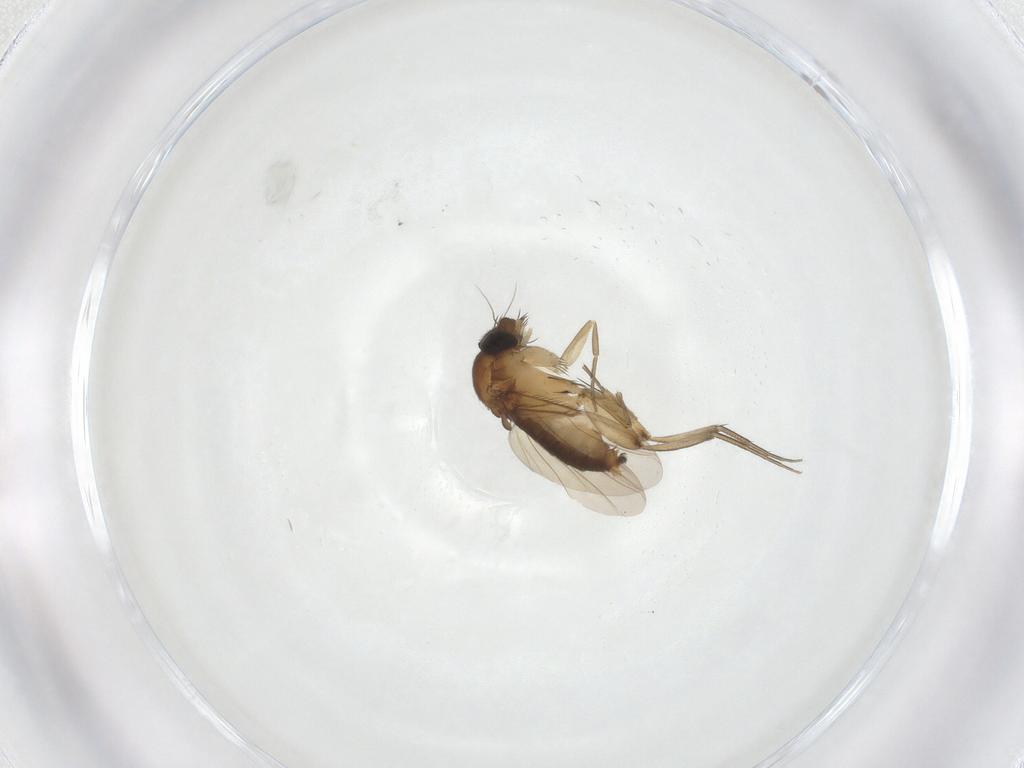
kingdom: Animalia
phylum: Arthropoda
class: Insecta
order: Diptera
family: Phoridae
